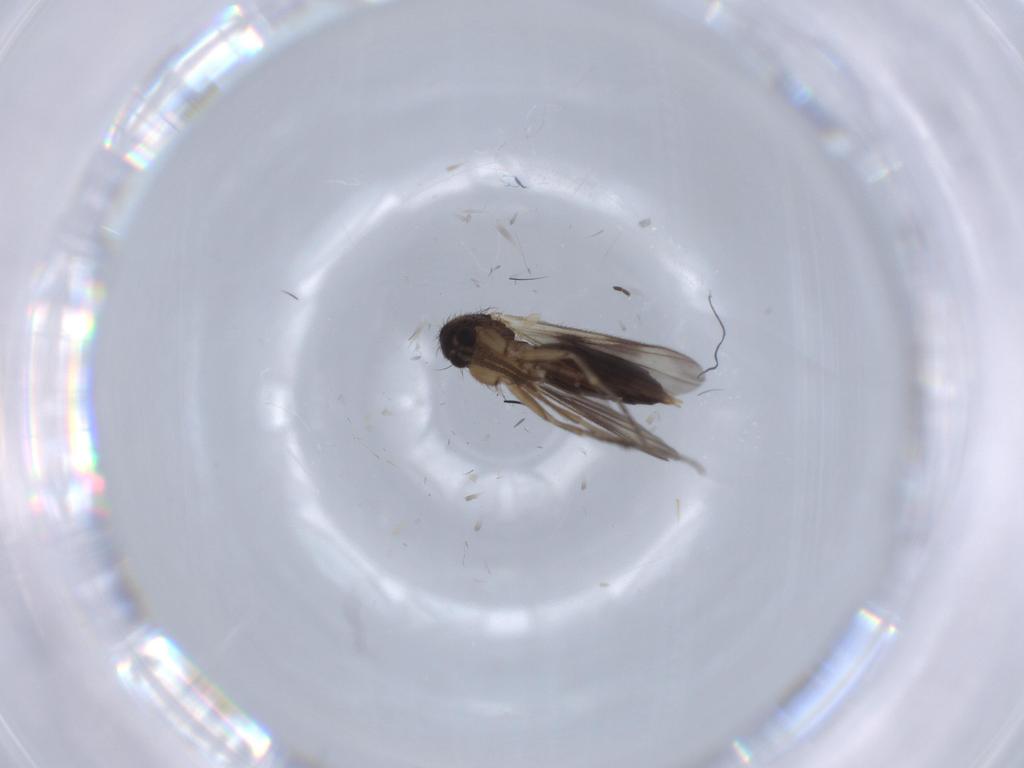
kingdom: Animalia
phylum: Arthropoda
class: Insecta
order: Diptera
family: Sciaridae
